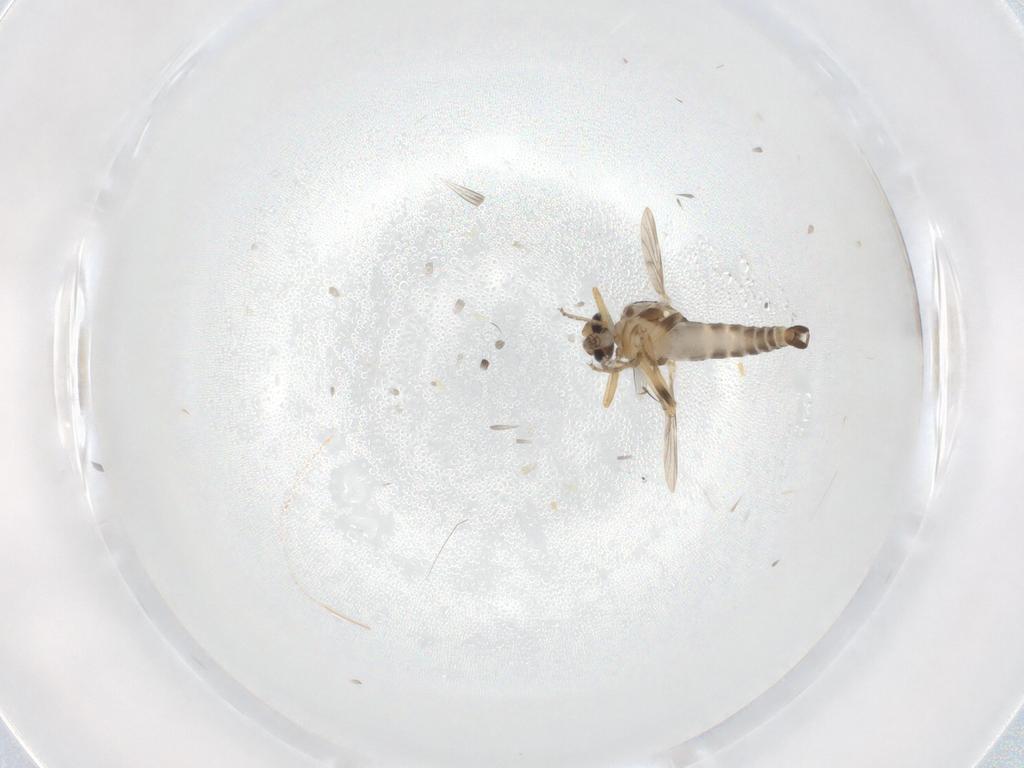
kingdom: Animalia
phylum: Arthropoda
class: Insecta
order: Diptera
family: Ceratopogonidae
